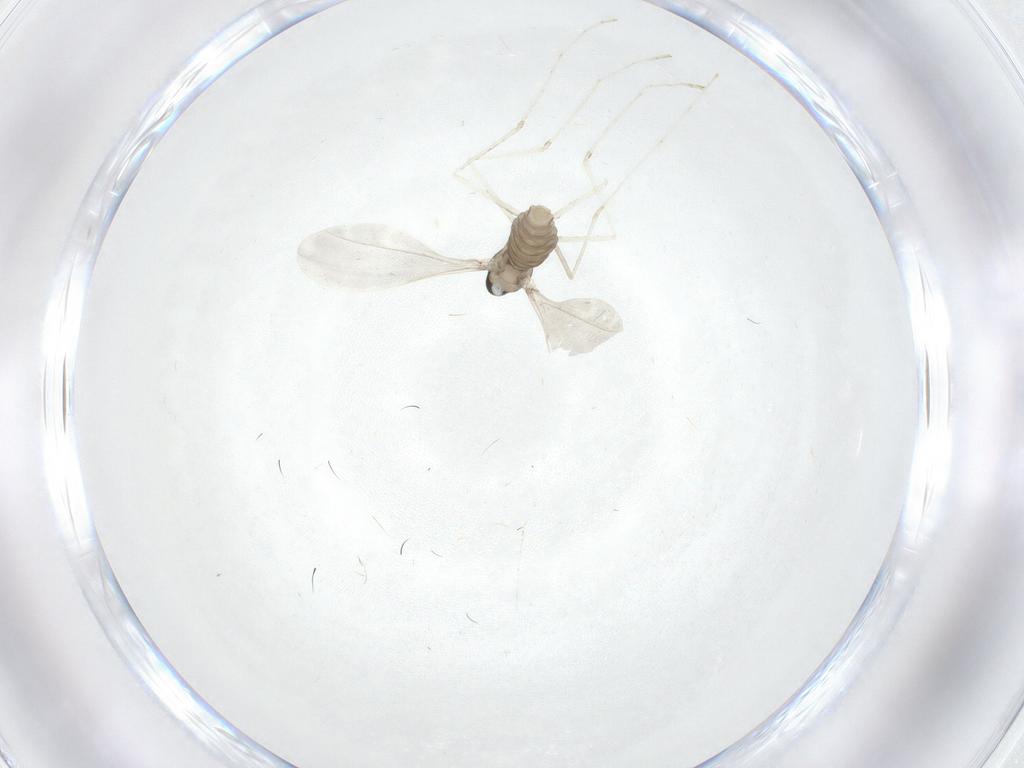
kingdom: Animalia
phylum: Arthropoda
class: Insecta
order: Diptera
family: Cecidomyiidae
